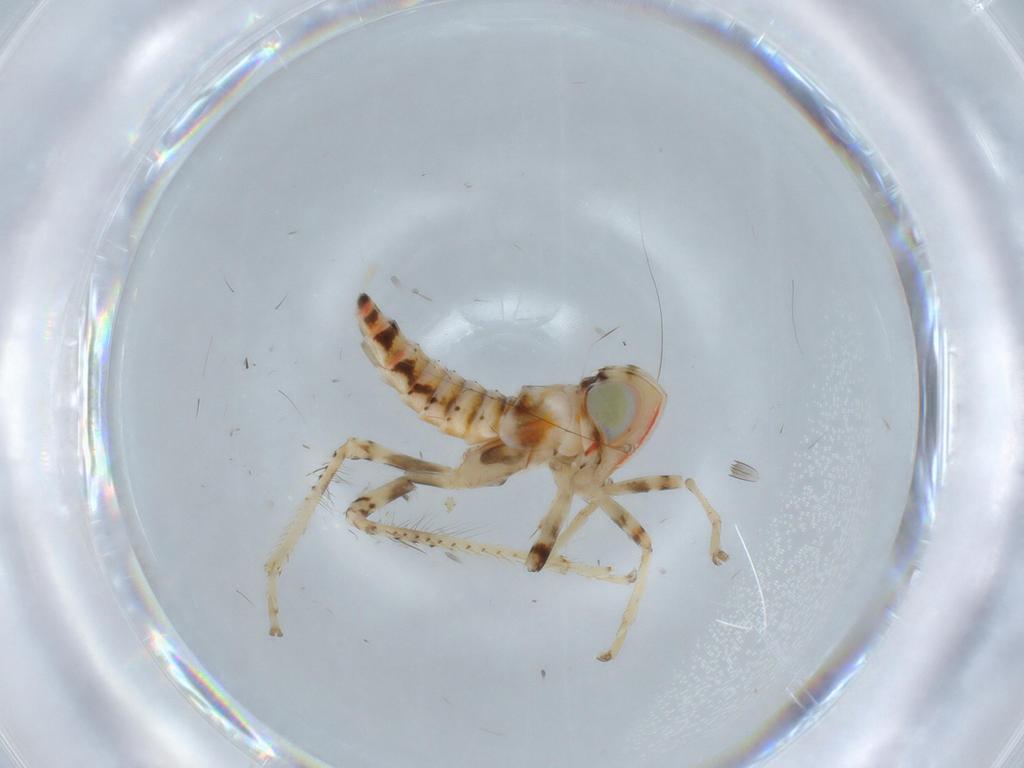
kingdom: Animalia
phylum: Arthropoda
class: Insecta
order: Hemiptera
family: Cicadellidae
